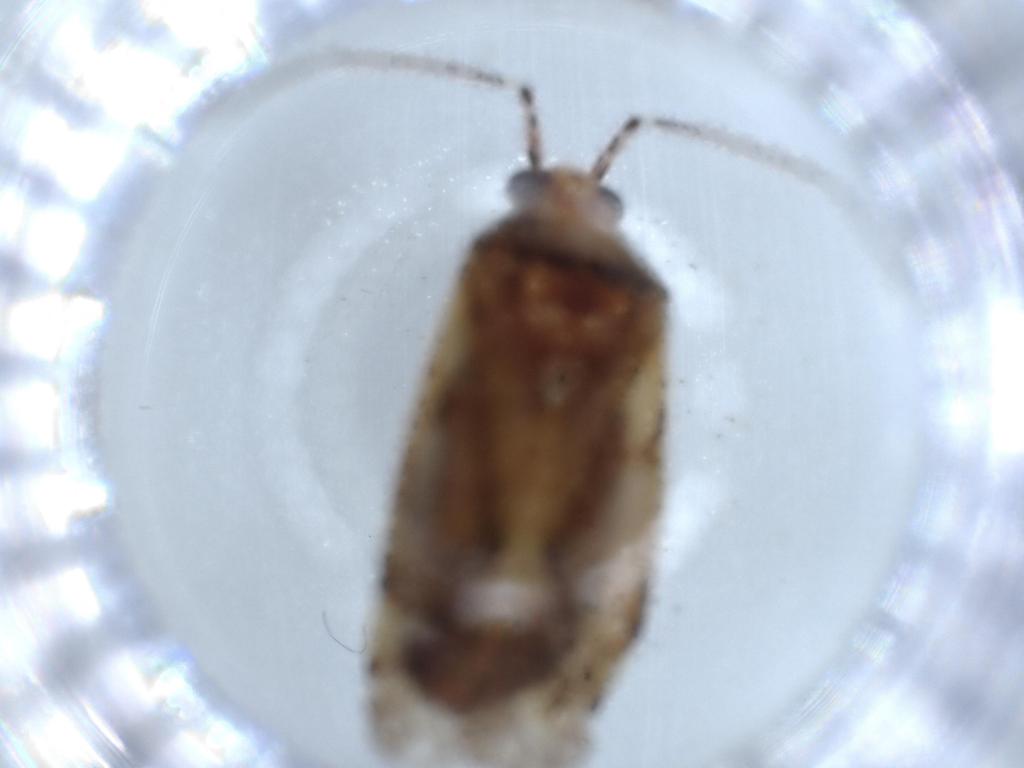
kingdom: Animalia
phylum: Arthropoda
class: Insecta
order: Hemiptera
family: Miridae
